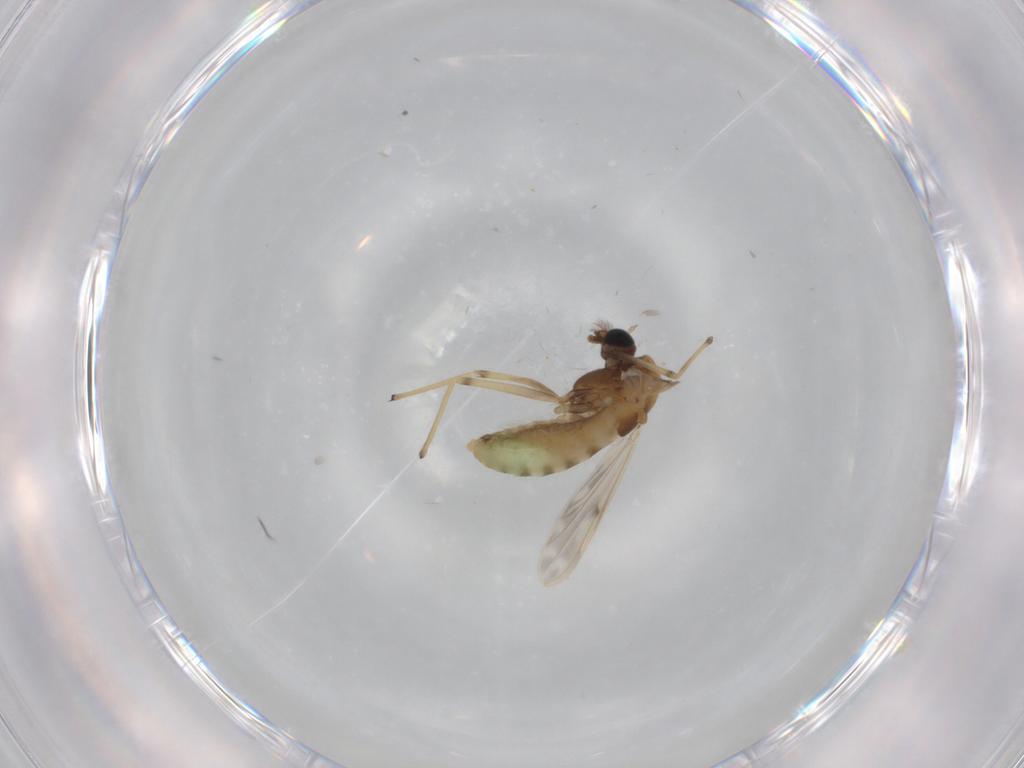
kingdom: Animalia
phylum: Arthropoda
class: Insecta
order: Diptera
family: Chironomidae
